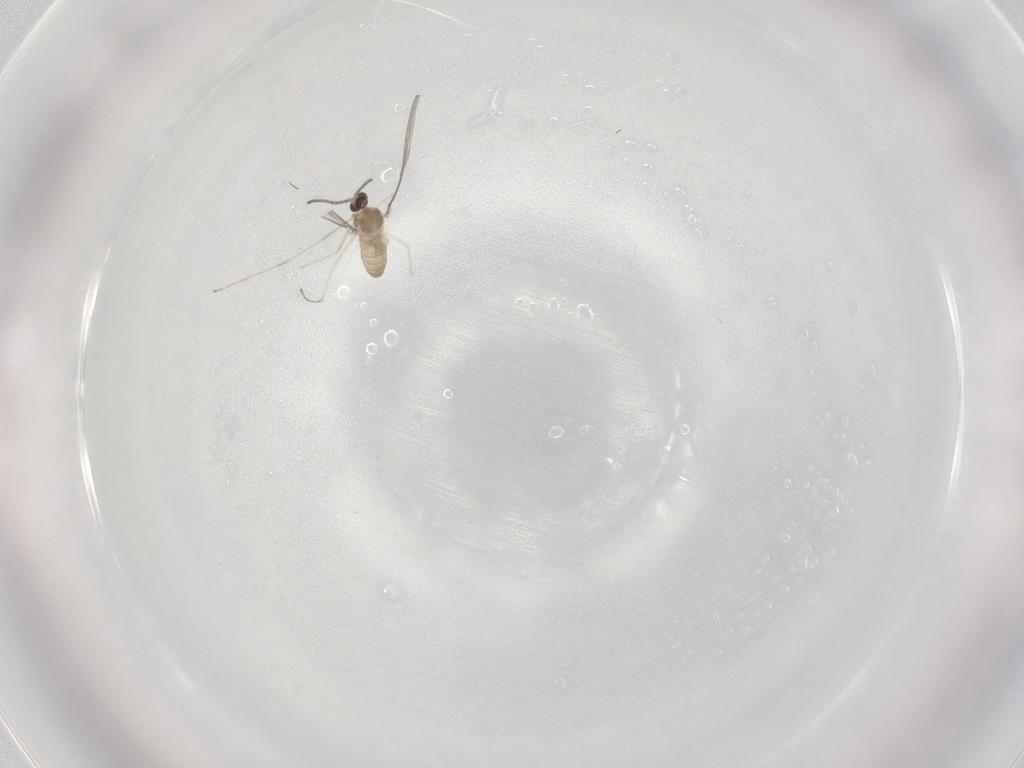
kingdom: Animalia
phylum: Arthropoda
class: Insecta
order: Diptera
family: Cecidomyiidae
